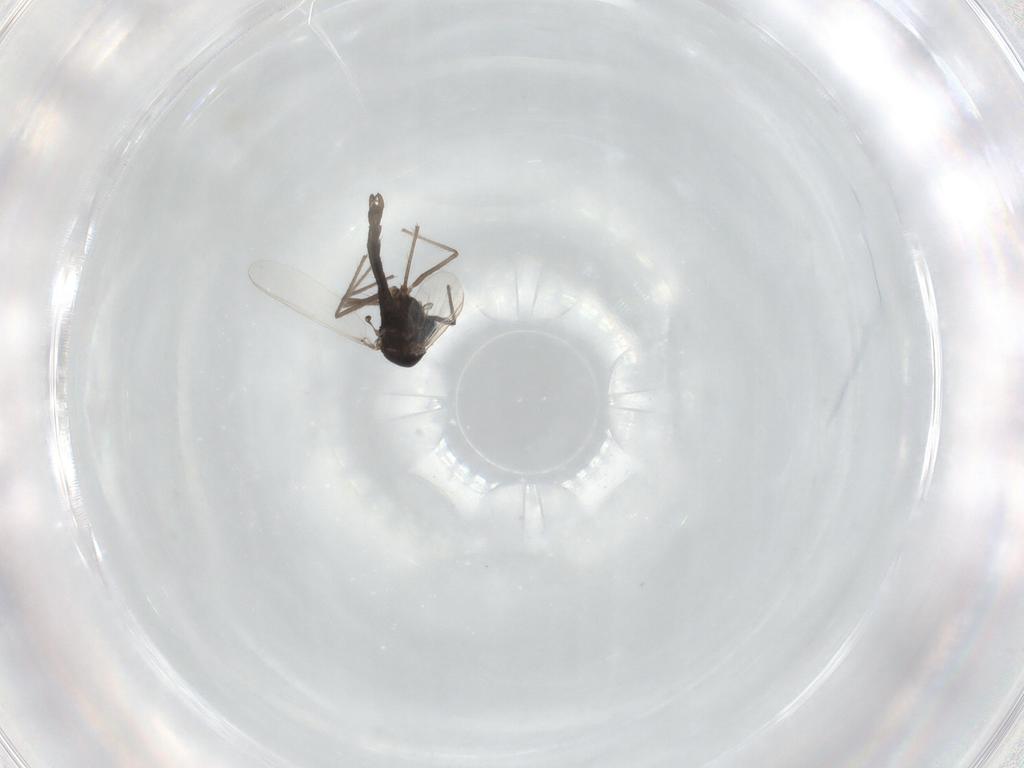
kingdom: Animalia
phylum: Arthropoda
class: Insecta
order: Diptera
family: Chironomidae
